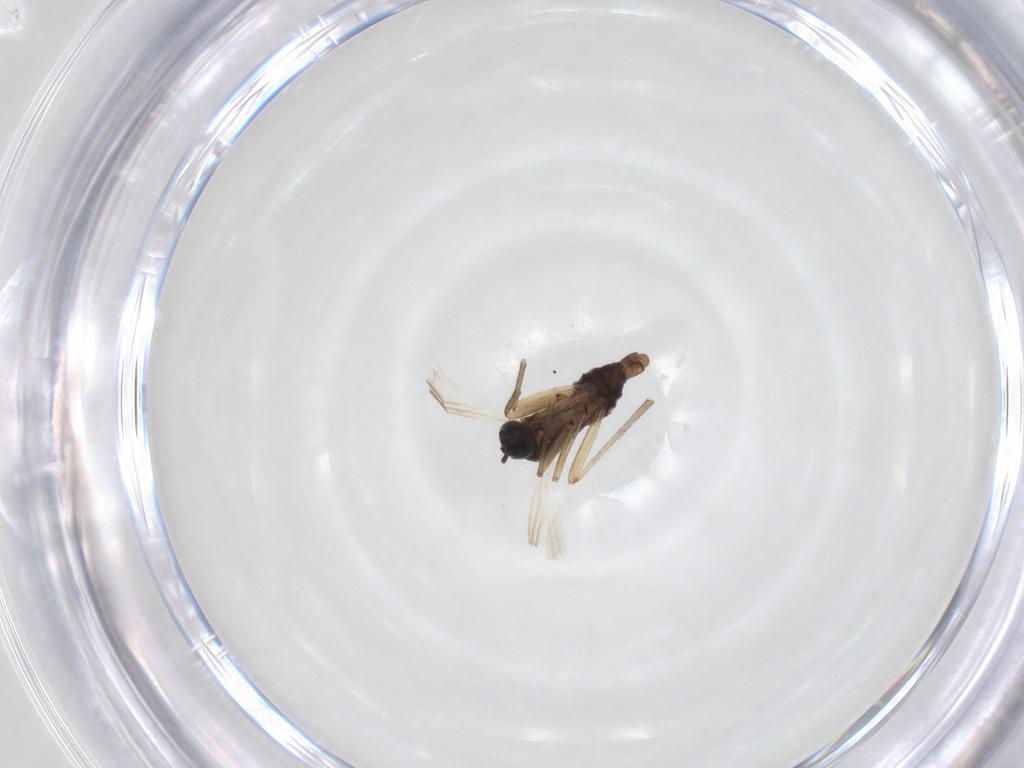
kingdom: Animalia
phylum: Arthropoda
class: Insecta
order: Diptera
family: Sciaridae
